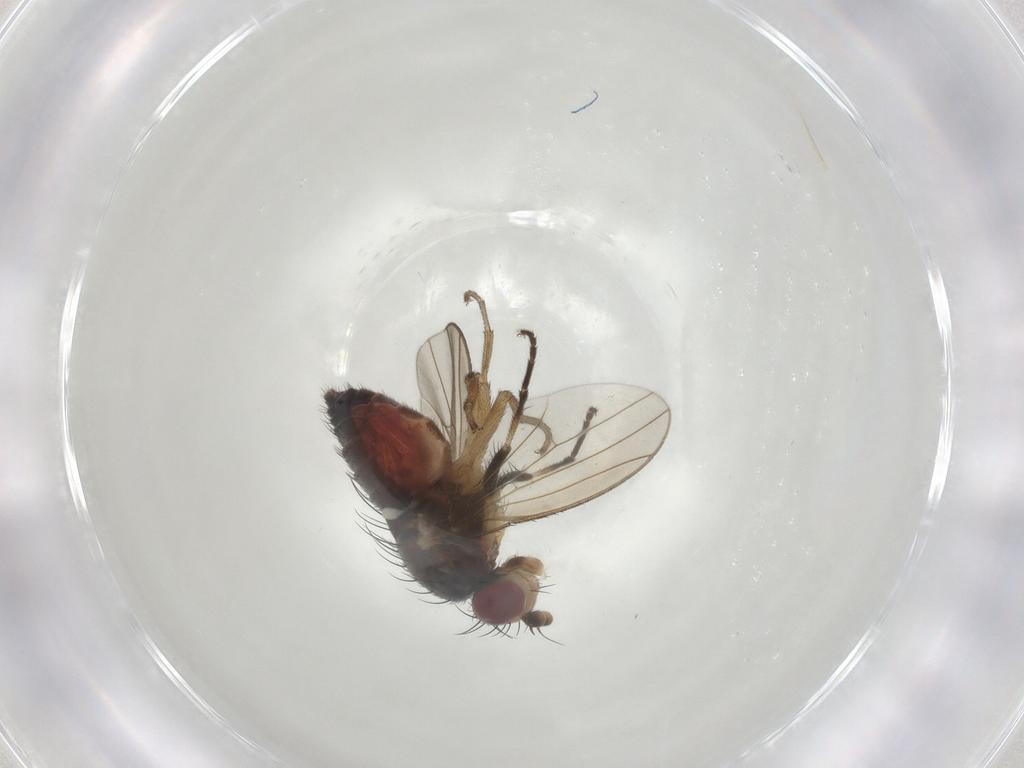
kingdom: Animalia
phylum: Arthropoda
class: Insecta
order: Diptera
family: Heleomyzidae
